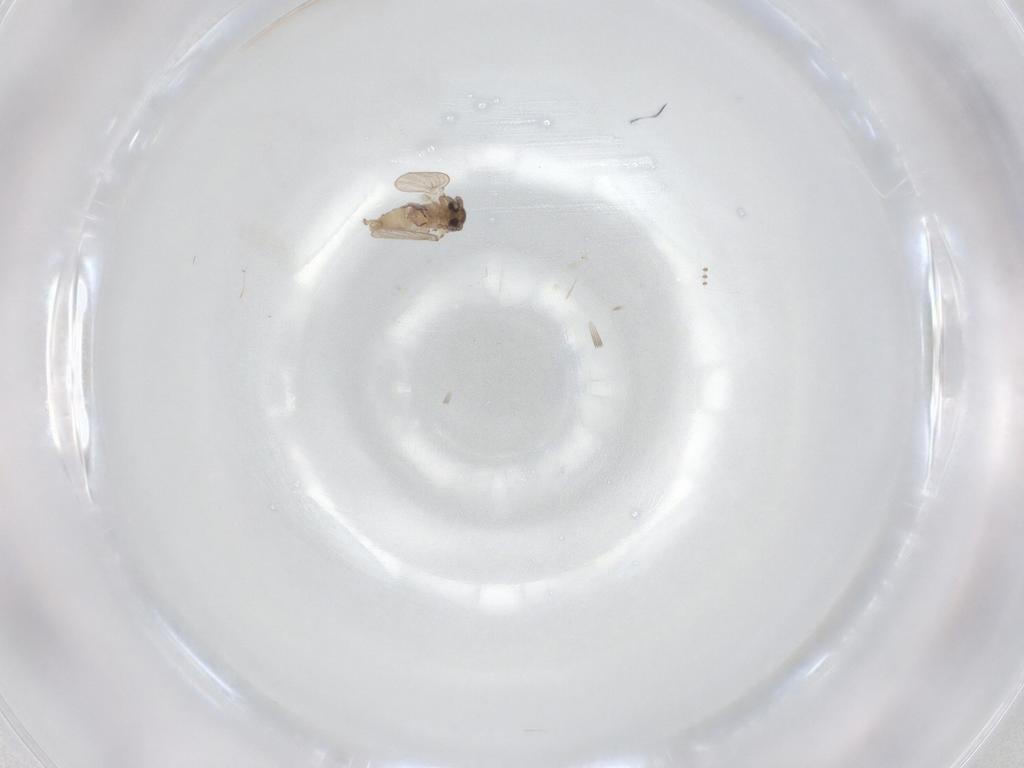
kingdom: Animalia
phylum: Arthropoda
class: Insecta
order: Diptera
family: Psychodidae
